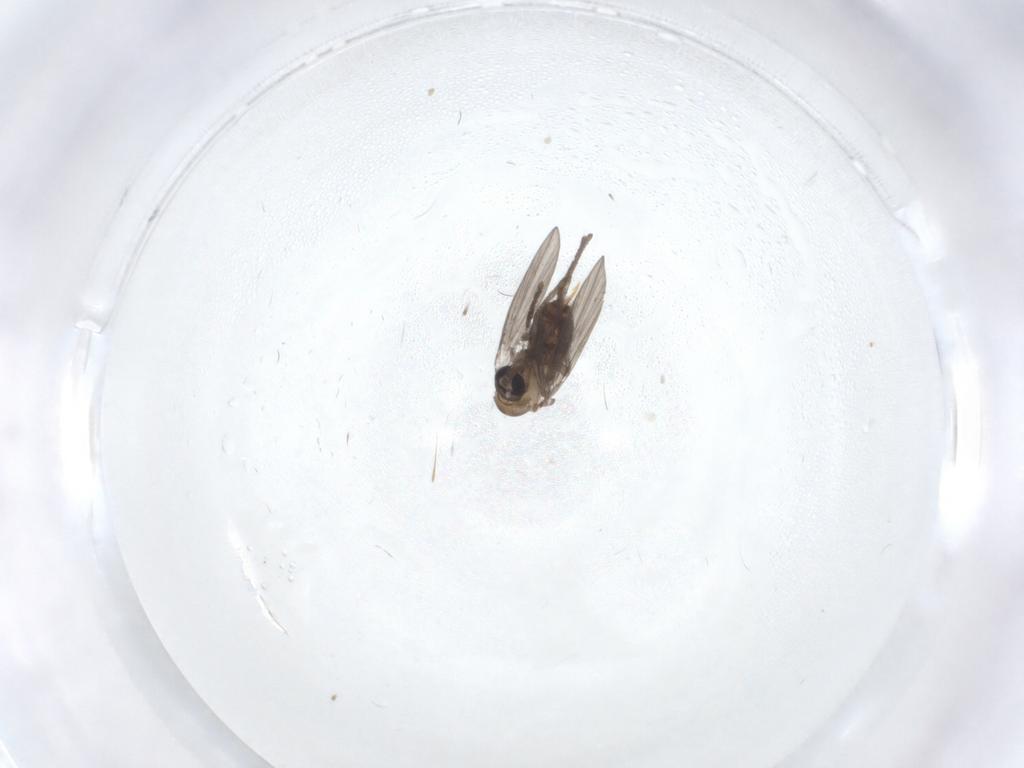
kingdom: Animalia
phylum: Arthropoda
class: Insecta
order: Diptera
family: Psychodidae
